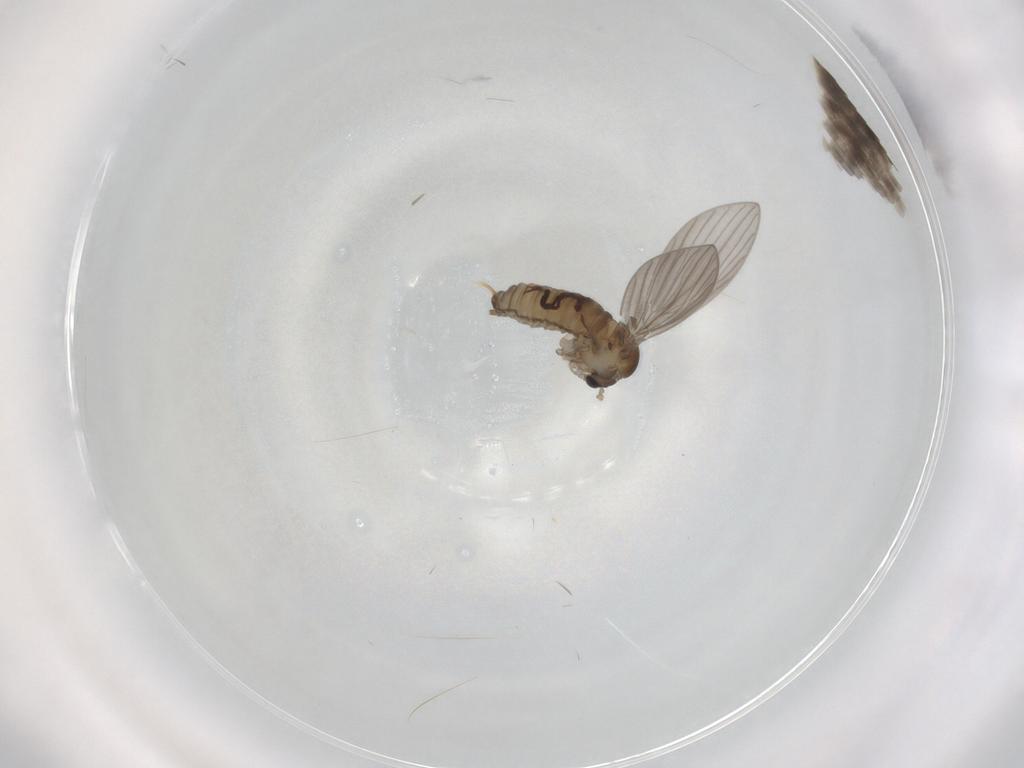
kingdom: Animalia
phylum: Arthropoda
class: Insecta
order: Diptera
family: Psychodidae
